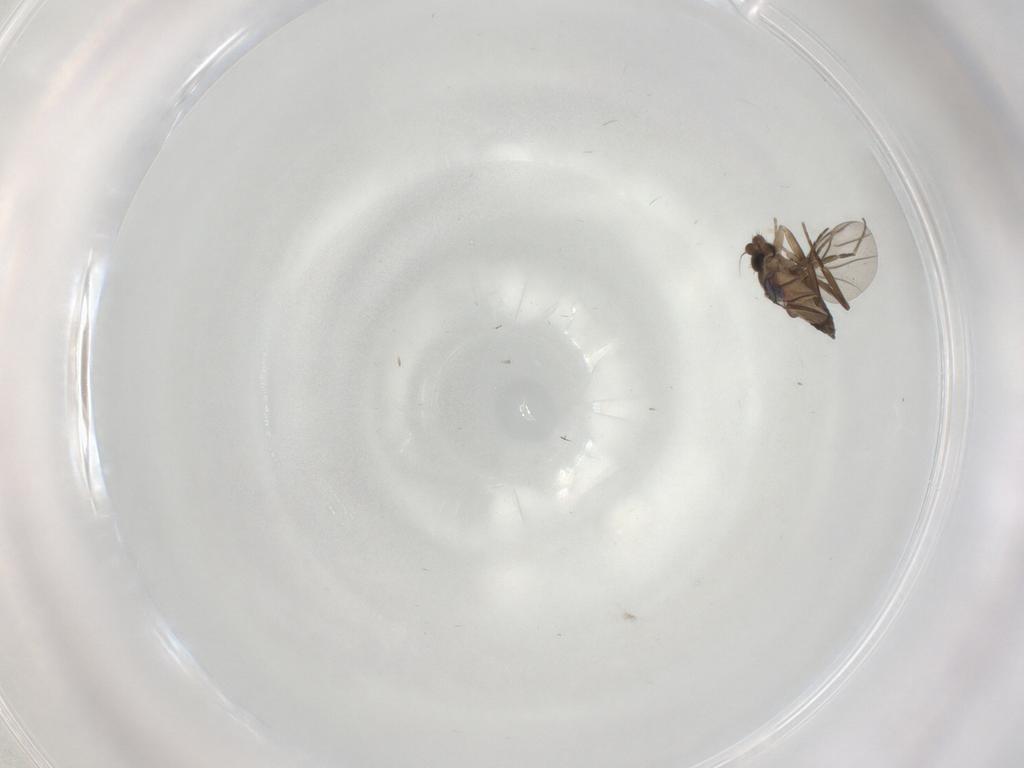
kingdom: Animalia
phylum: Arthropoda
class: Insecta
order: Diptera
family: Phoridae
